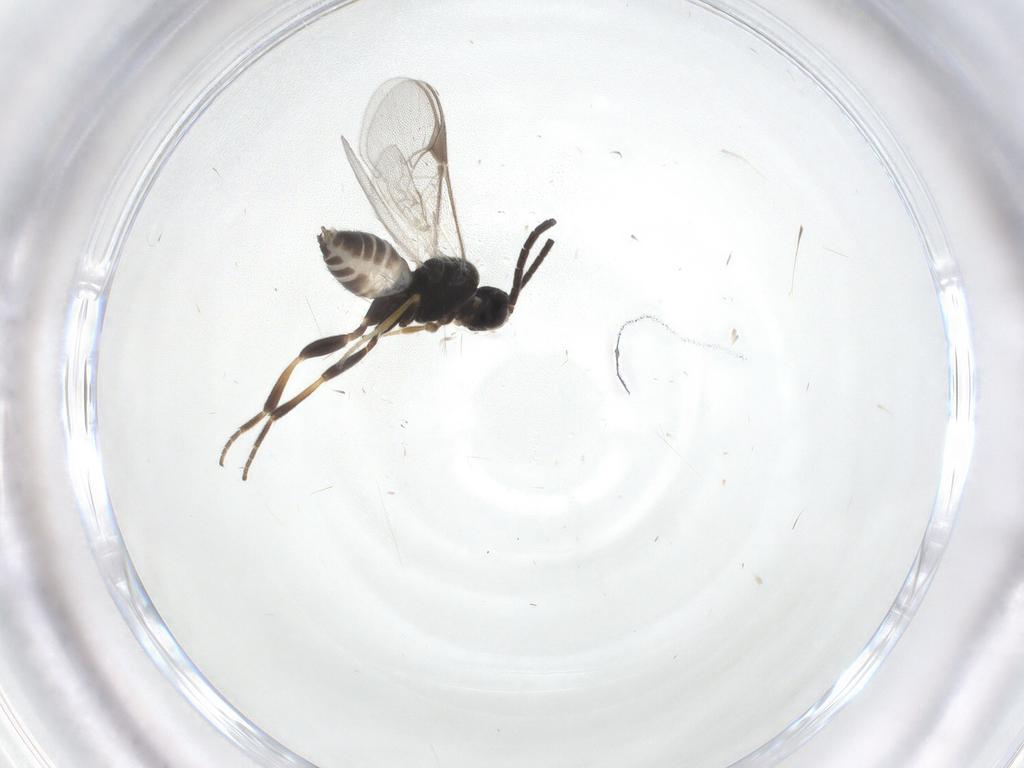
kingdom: Animalia
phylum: Arthropoda
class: Insecta
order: Hymenoptera
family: Braconidae
